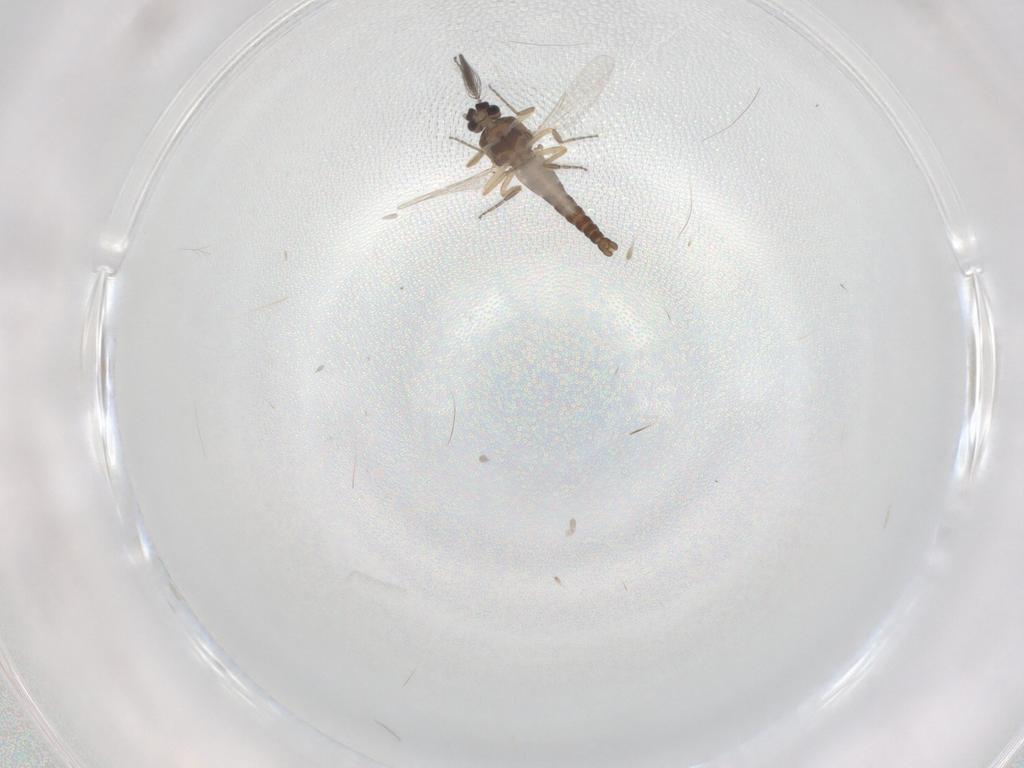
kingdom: Animalia
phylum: Arthropoda
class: Insecta
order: Diptera
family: Ceratopogonidae
